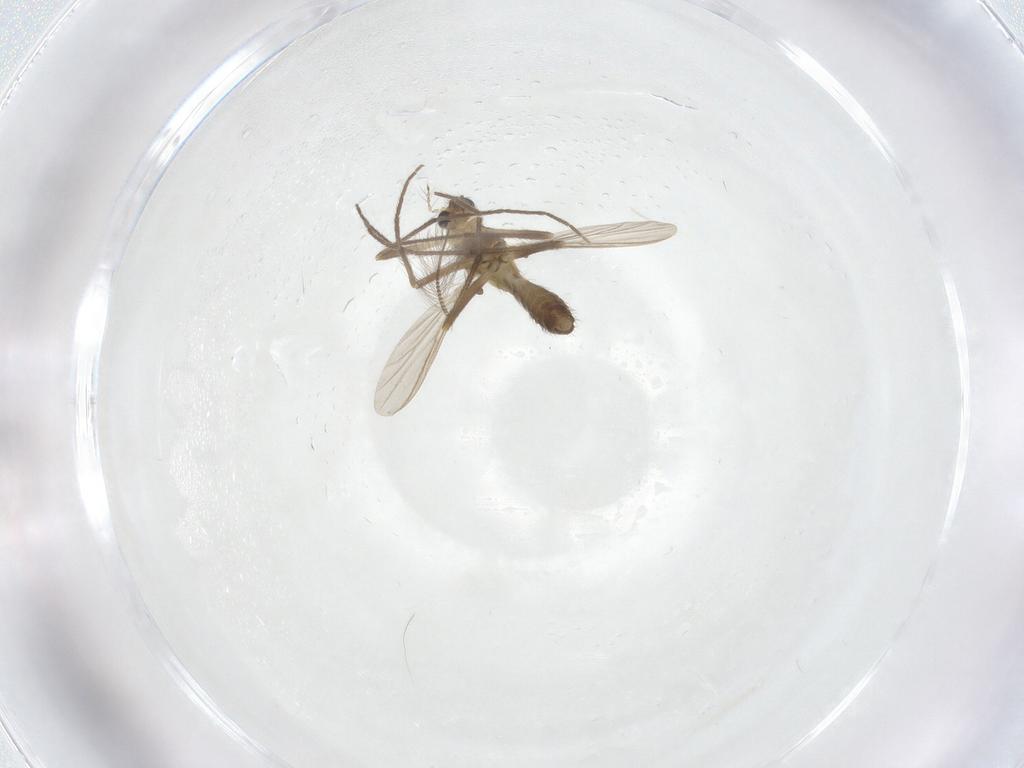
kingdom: Animalia
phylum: Arthropoda
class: Insecta
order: Diptera
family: Chironomidae
